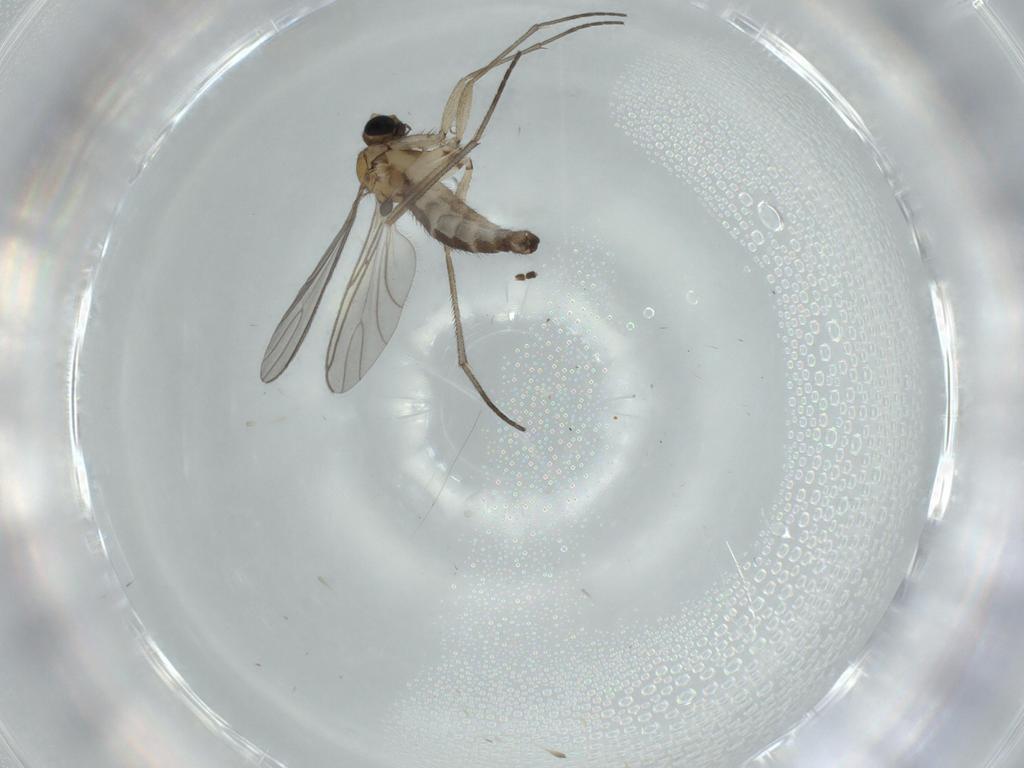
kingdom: Animalia
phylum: Arthropoda
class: Insecta
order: Diptera
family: Sciaridae
